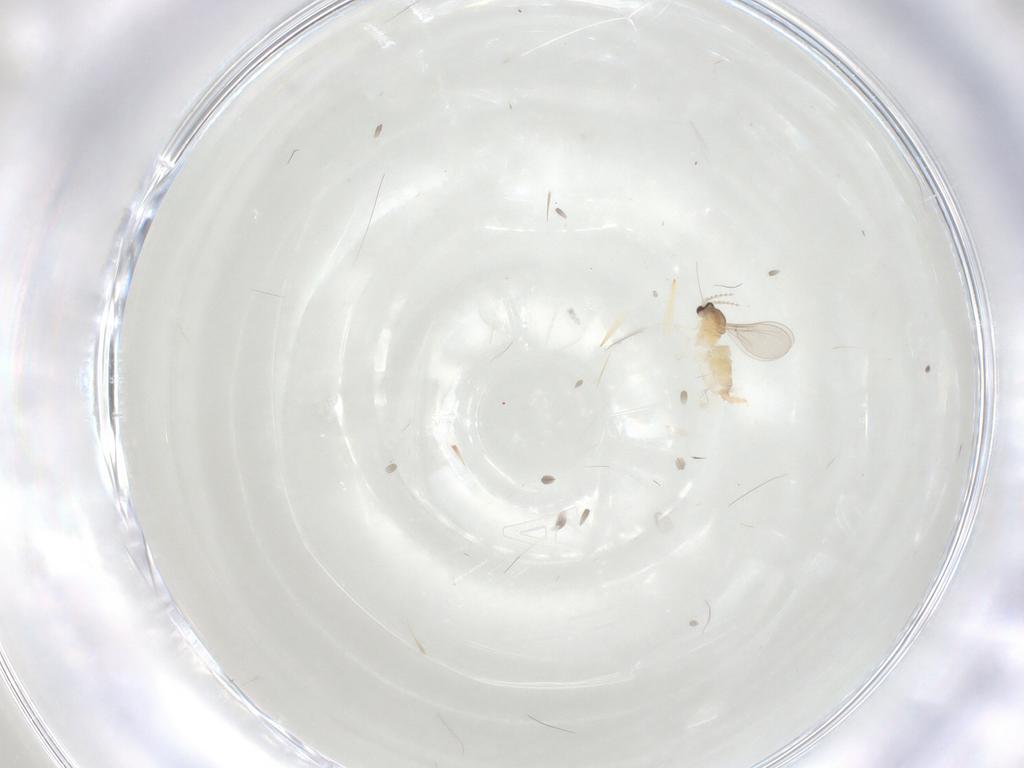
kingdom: Animalia
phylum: Arthropoda
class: Insecta
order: Diptera
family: Cecidomyiidae
